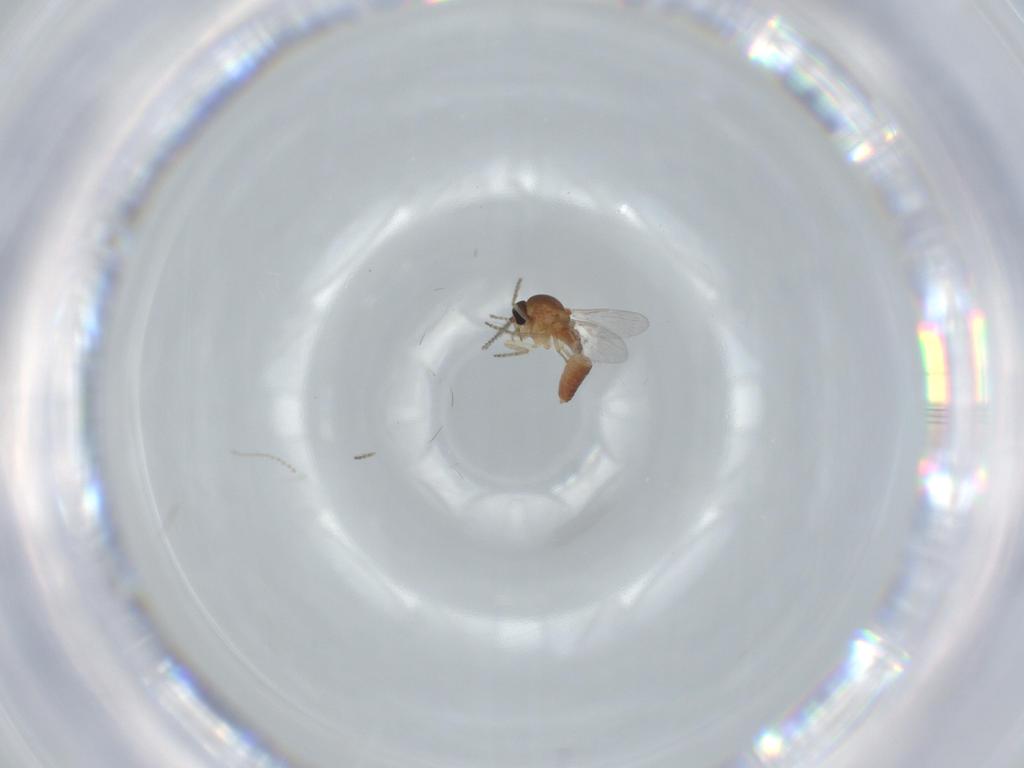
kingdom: Animalia
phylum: Arthropoda
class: Insecta
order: Diptera
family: Ceratopogonidae
